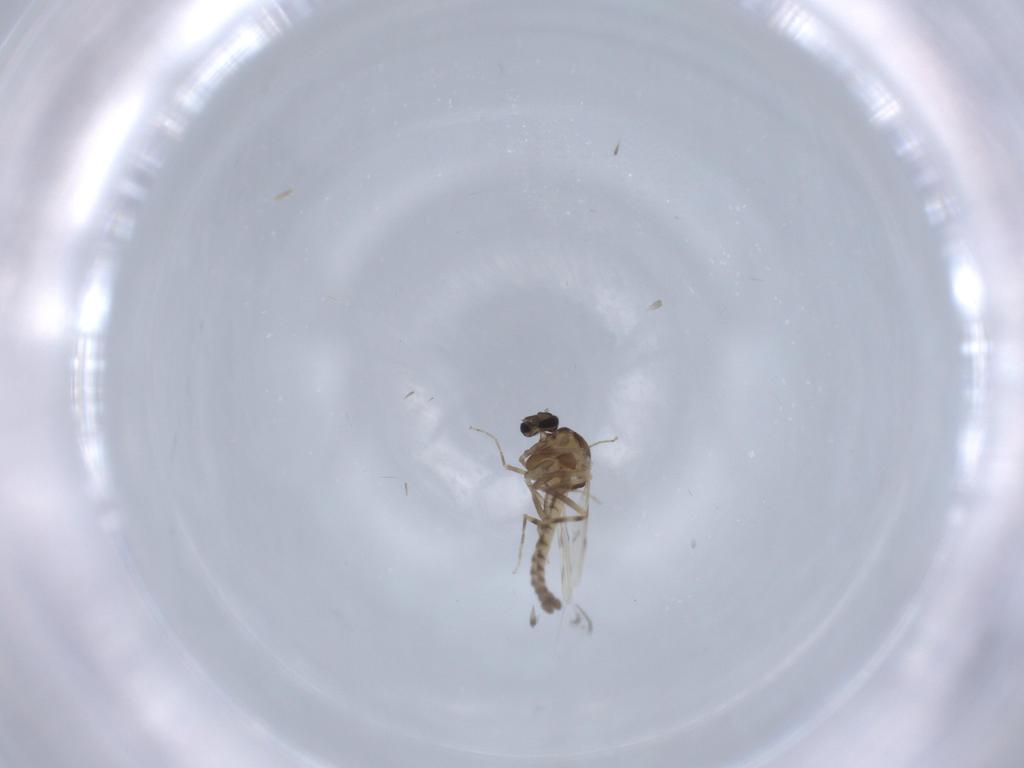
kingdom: Animalia
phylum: Arthropoda
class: Insecta
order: Diptera
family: Ceratopogonidae
